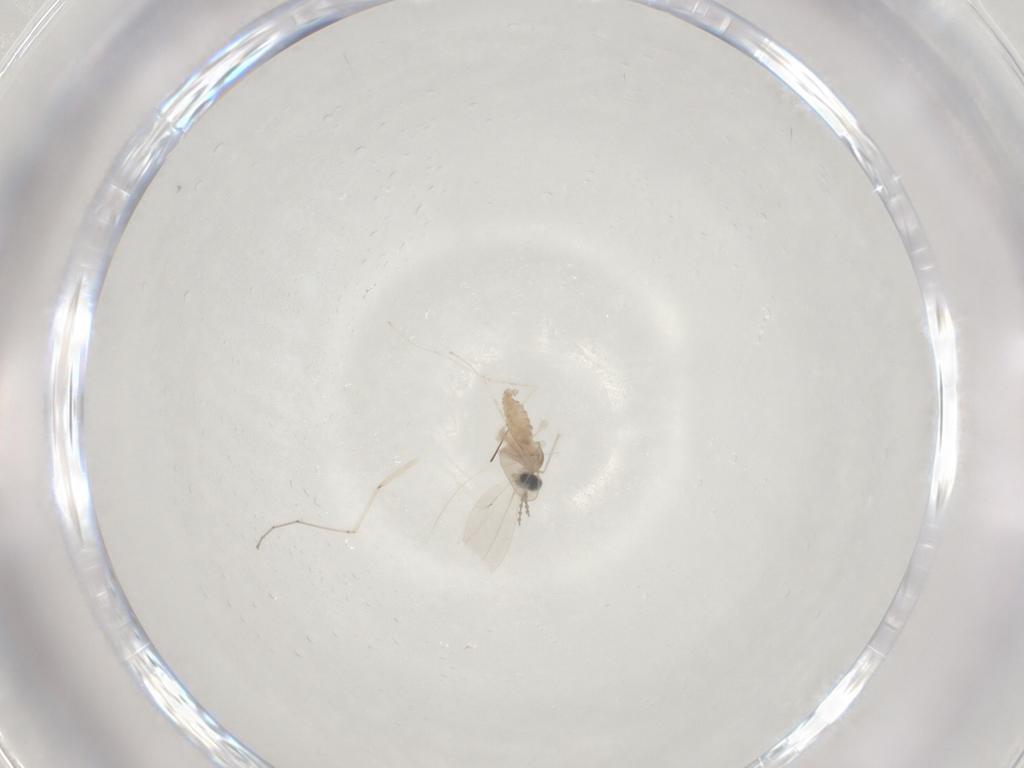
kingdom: Animalia
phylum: Arthropoda
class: Insecta
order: Diptera
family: Cecidomyiidae
